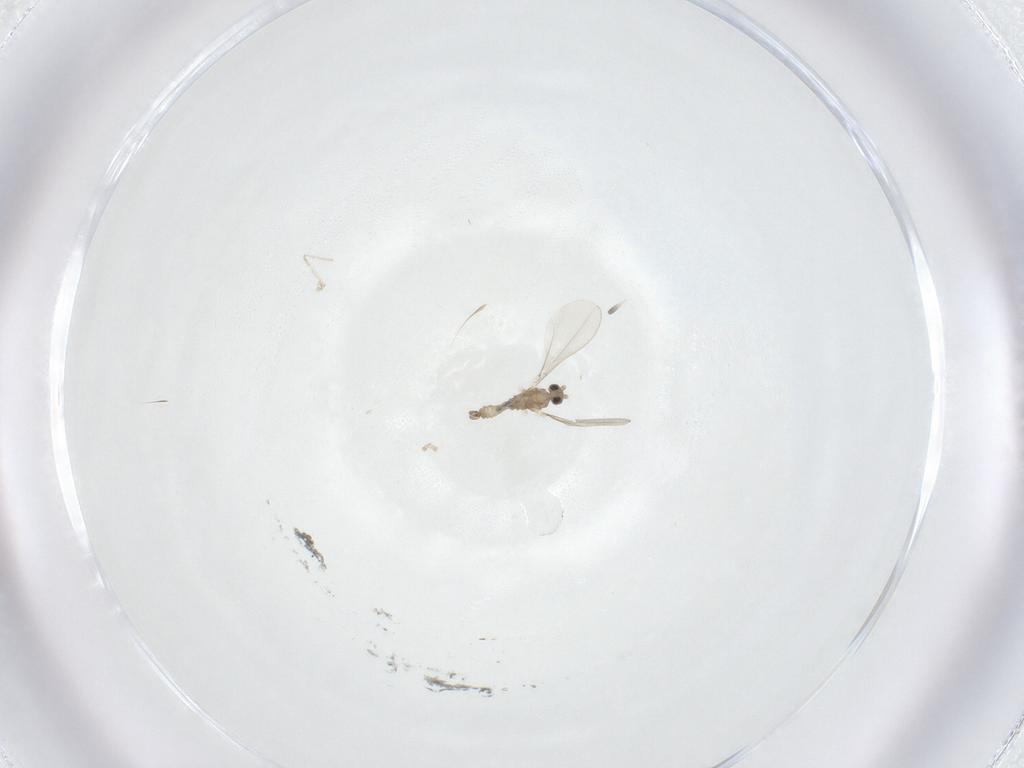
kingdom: Animalia
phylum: Arthropoda
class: Insecta
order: Diptera
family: Cecidomyiidae
